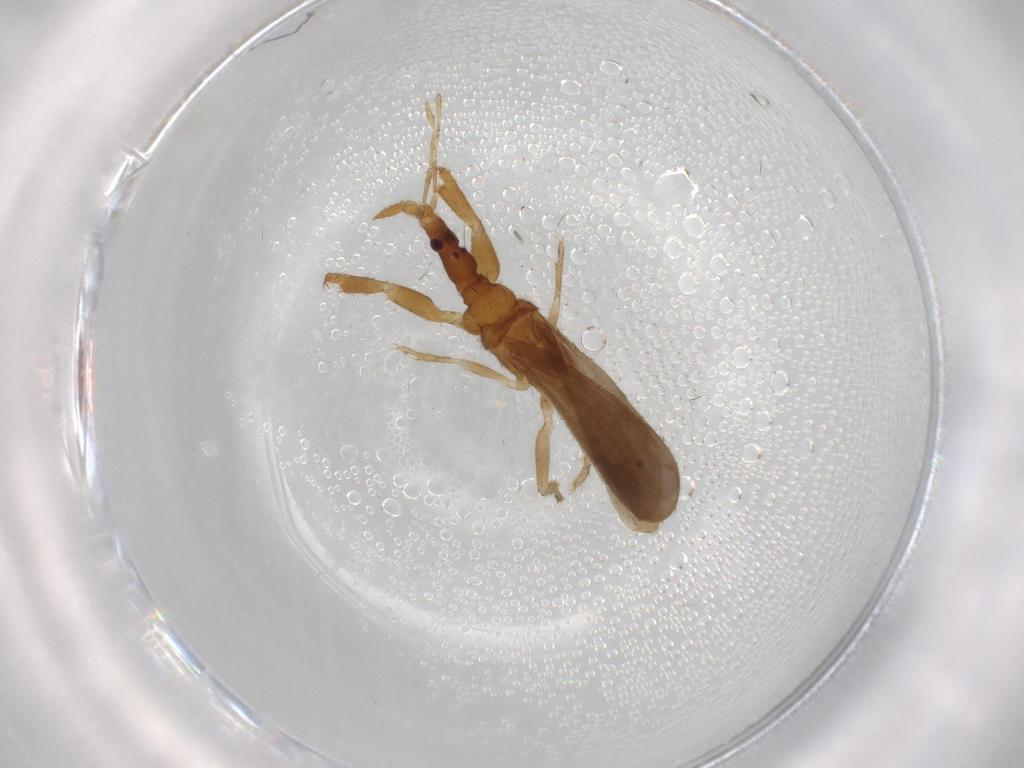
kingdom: Animalia
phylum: Arthropoda
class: Insecta
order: Hemiptera
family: Enicocephalidae
